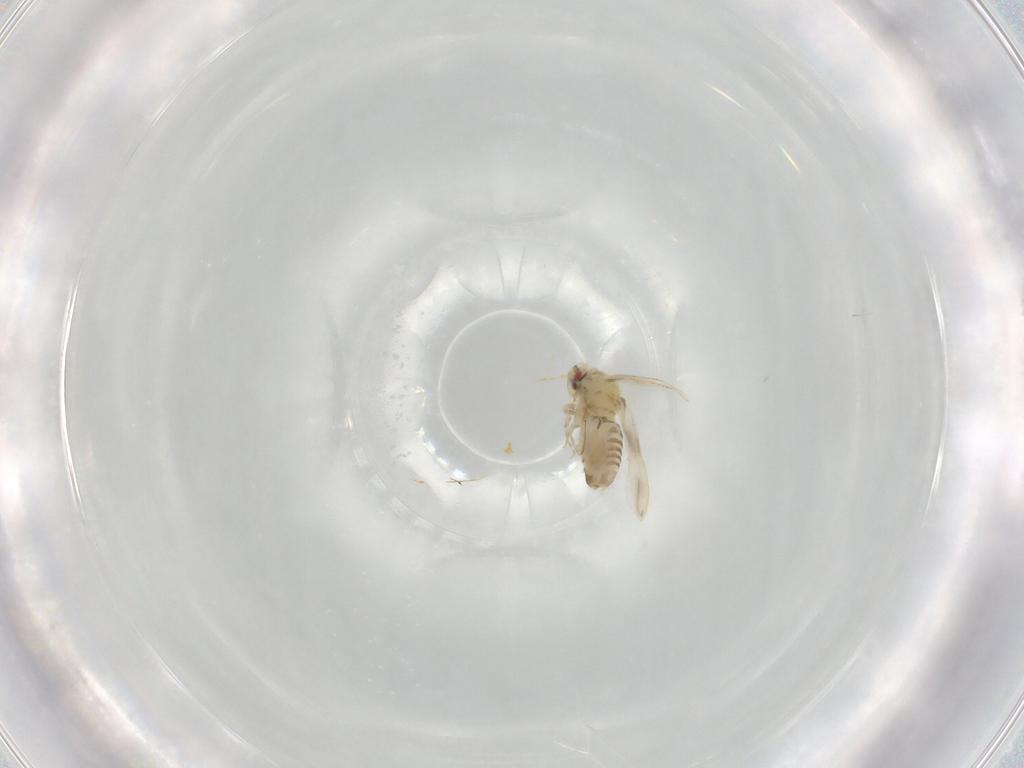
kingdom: Animalia
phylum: Arthropoda
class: Insecta
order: Hemiptera
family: Aleyrodidae
